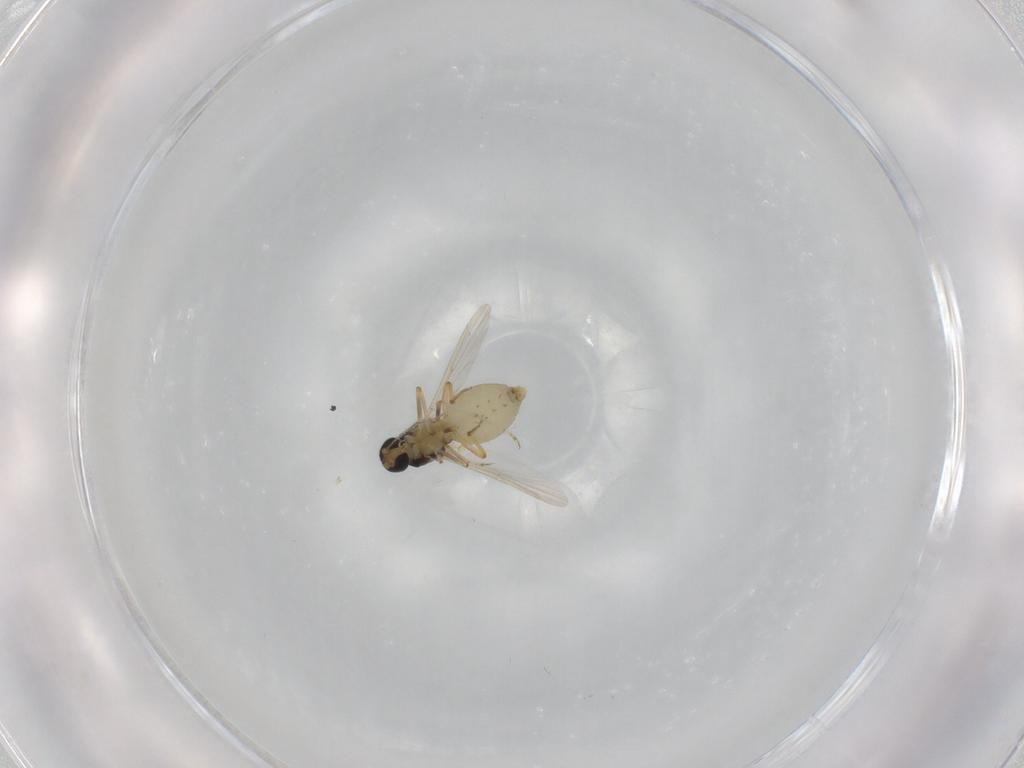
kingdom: Animalia
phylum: Arthropoda
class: Insecta
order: Diptera
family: Ceratopogonidae
